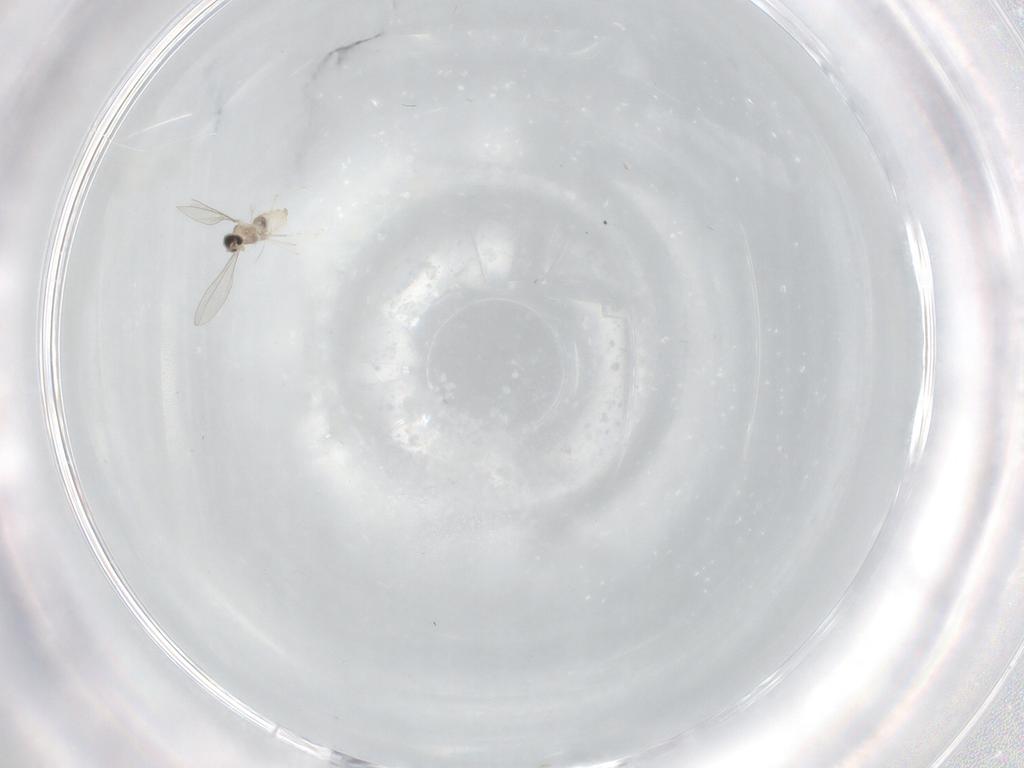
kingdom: Animalia
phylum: Arthropoda
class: Insecta
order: Diptera
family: Cecidomyiidae
